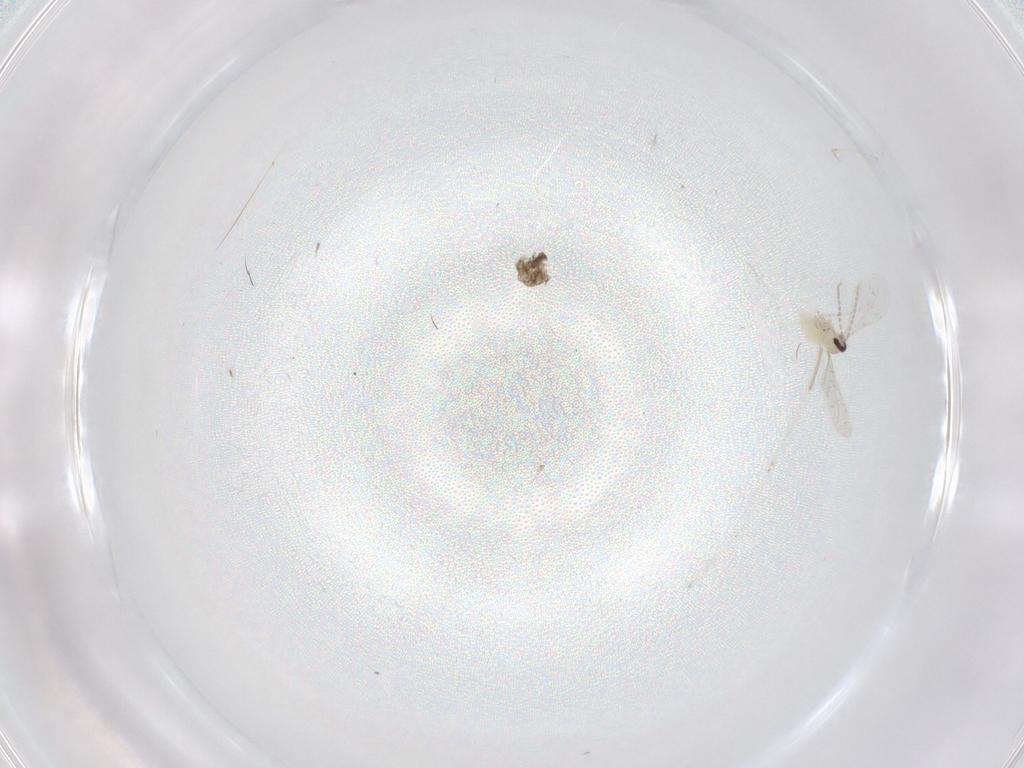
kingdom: Animalia
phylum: Arthropoda
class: Insecta
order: Diptera
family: Cecidomyiidae
